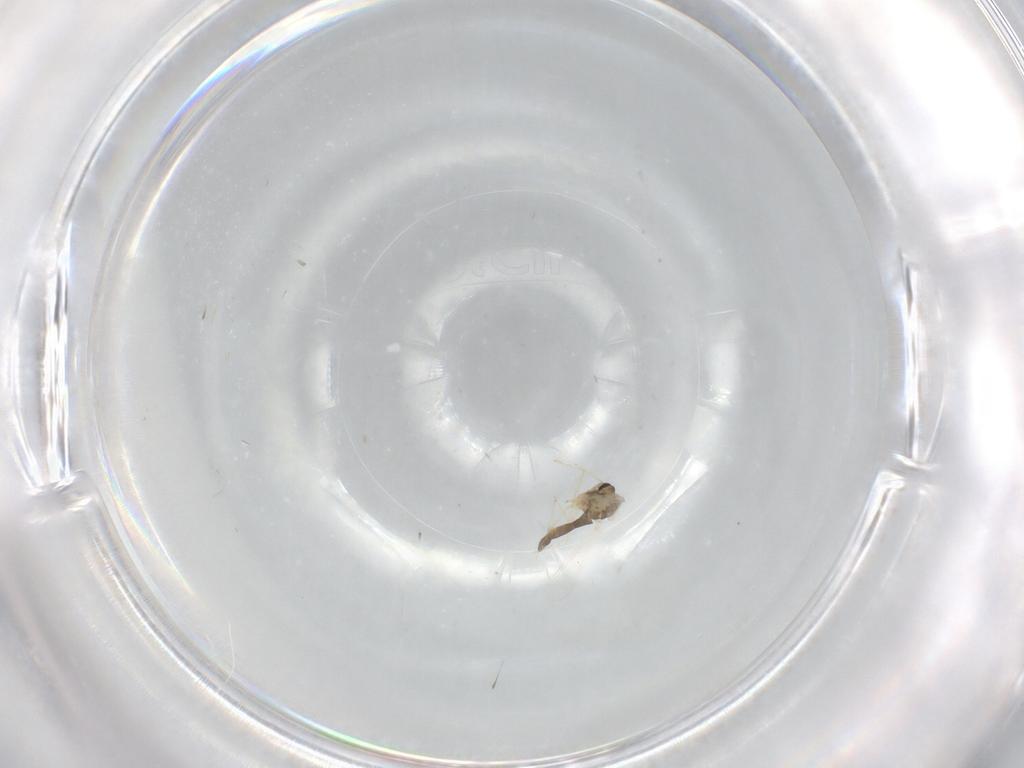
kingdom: Animalia
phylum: Arthropoda
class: Insecta
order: Diptera
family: Chironomidae
